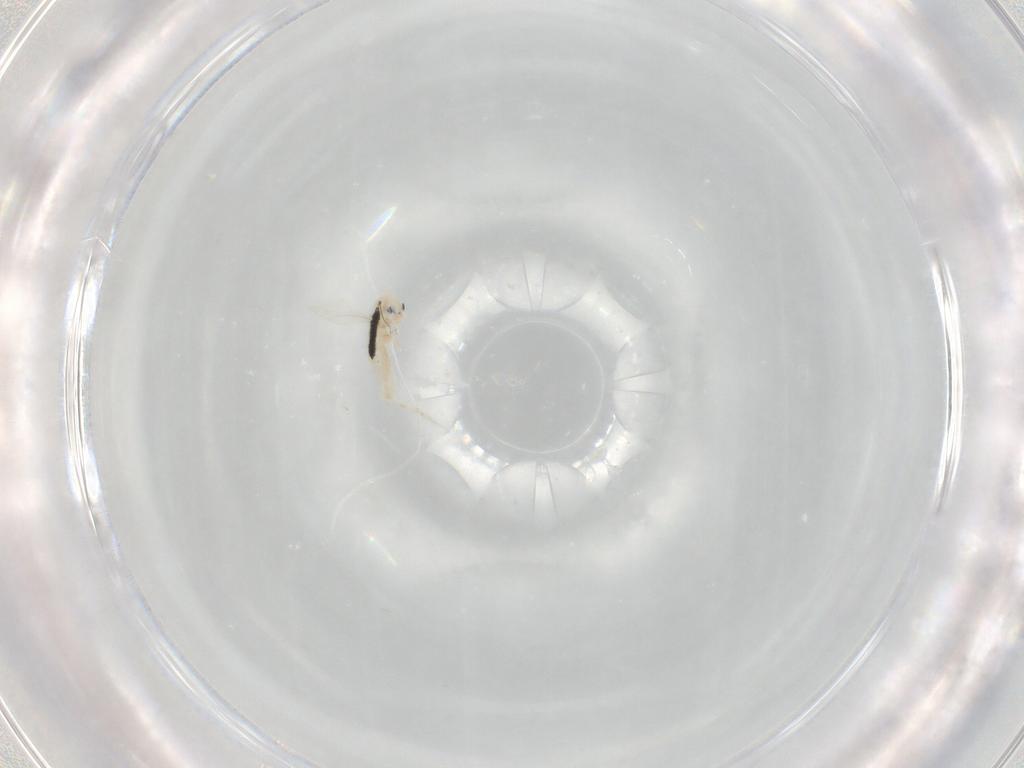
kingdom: Animalia
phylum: Arthropoda
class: Collembola
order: Entomobryomorpha
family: Entomobryidae
